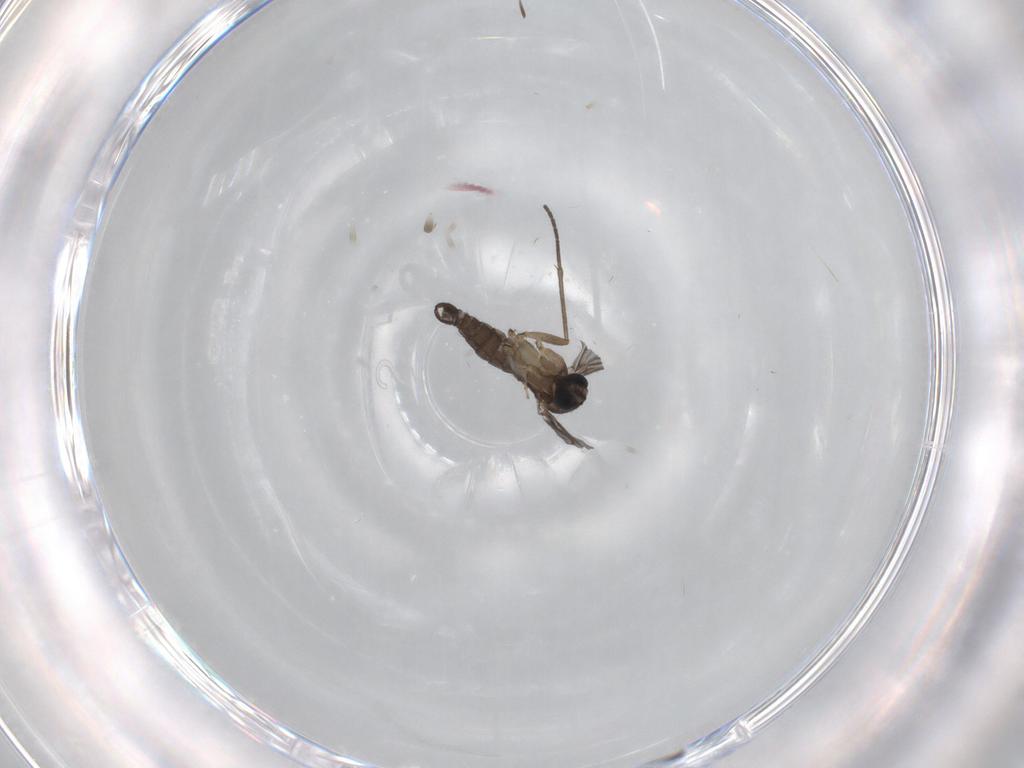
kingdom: Animalia
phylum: Arthropoda
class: Insecta
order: Diptera
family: Sciaridae
